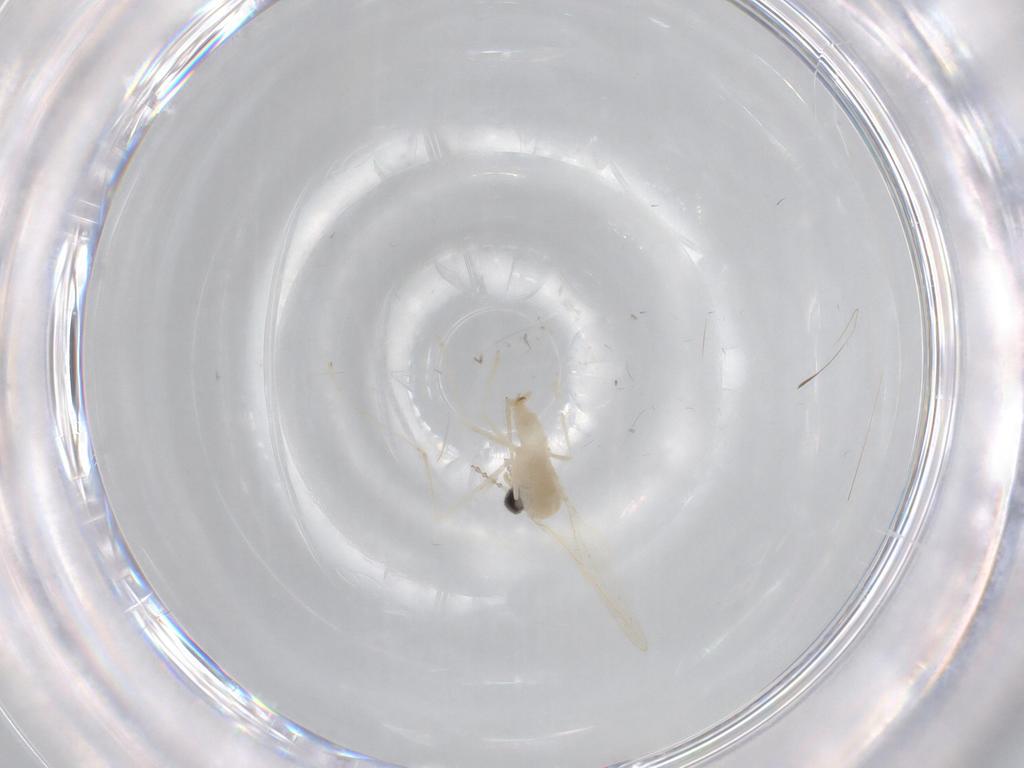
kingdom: Animalia
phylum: Arthropoda
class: Insecta
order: Diptera
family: Cecidomyiidae
